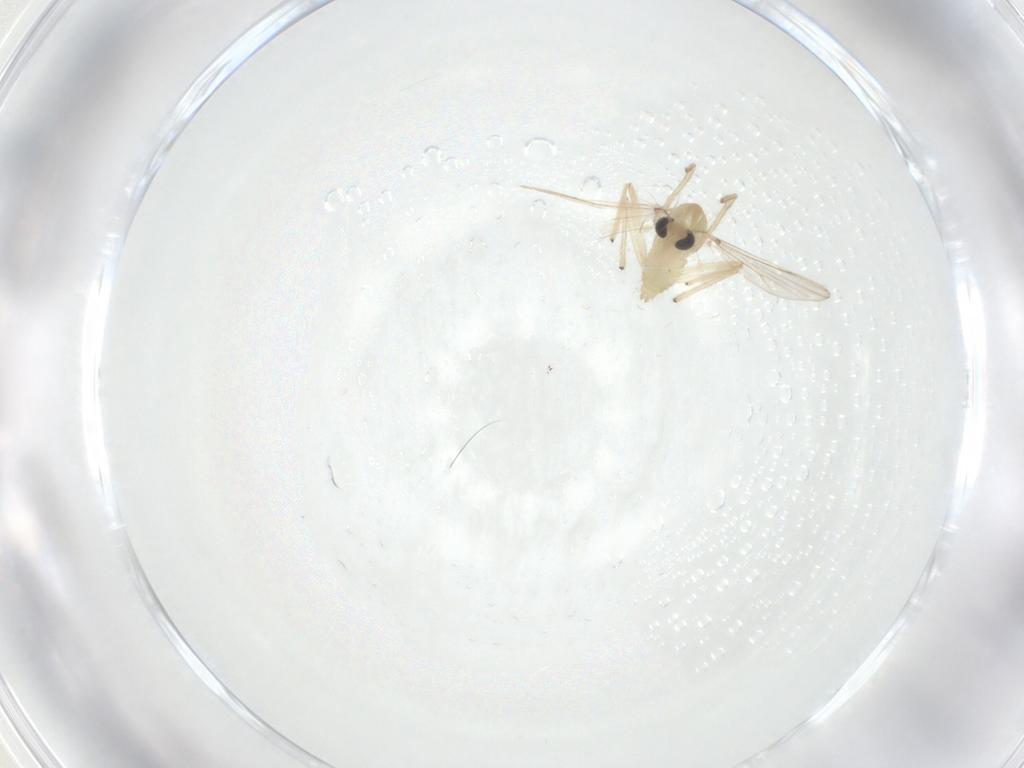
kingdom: Animalia
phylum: Arthropoda
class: Insecta
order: Diptera
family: Chironomidae
